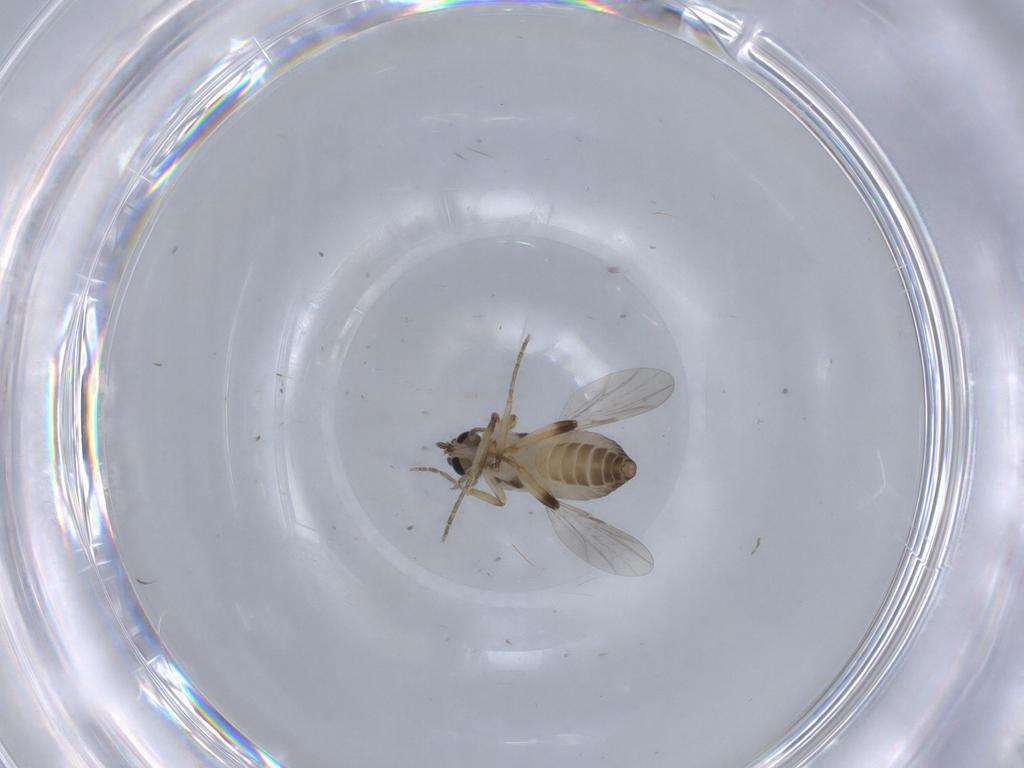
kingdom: Animalia
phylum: Arthropoda
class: Insecta
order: Diptera
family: Ceratopogonidae
